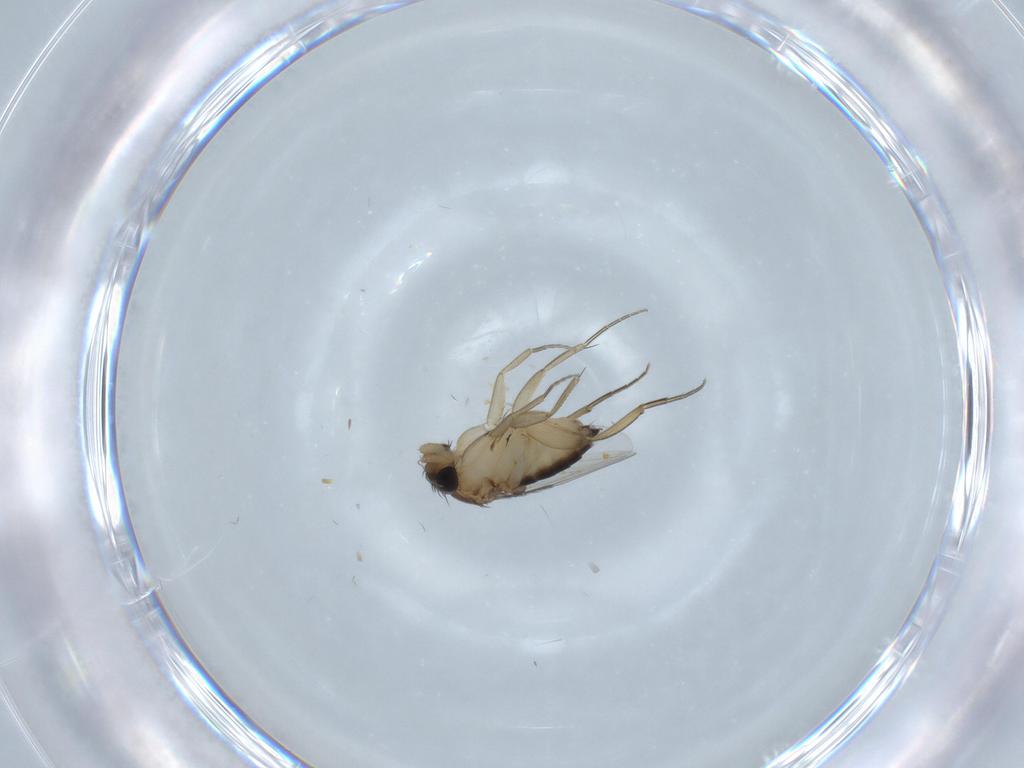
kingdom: Animalia
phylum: Arthropoda
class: Insecta
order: Diptera
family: Cecidomyiidae
